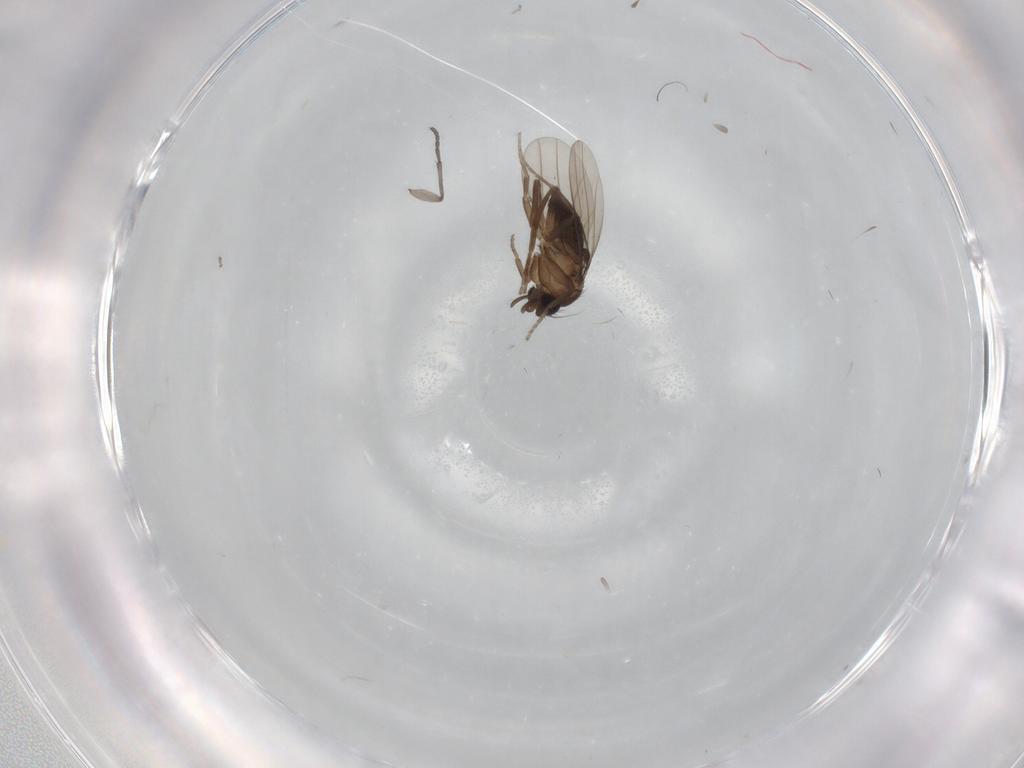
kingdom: Animalia
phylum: Arthropoda
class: Insecta
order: Diptera
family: Sciaridae
